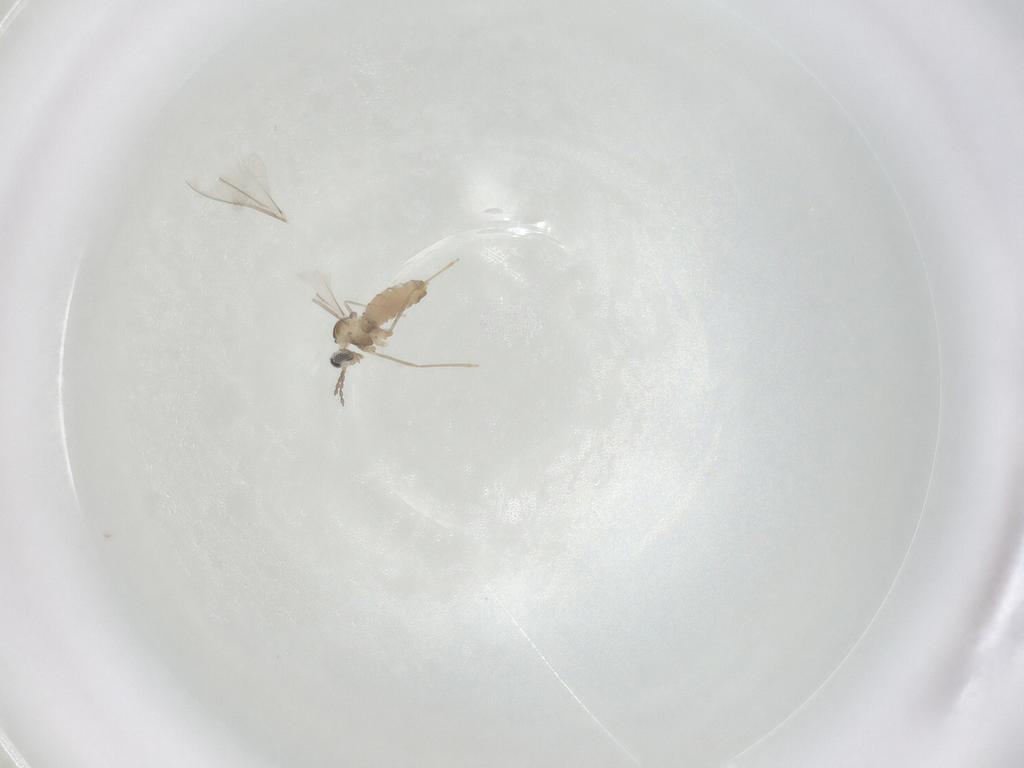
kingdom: Animalia
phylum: Arthropoda
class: Insecta
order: Diptera
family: Cecidomyiidae
